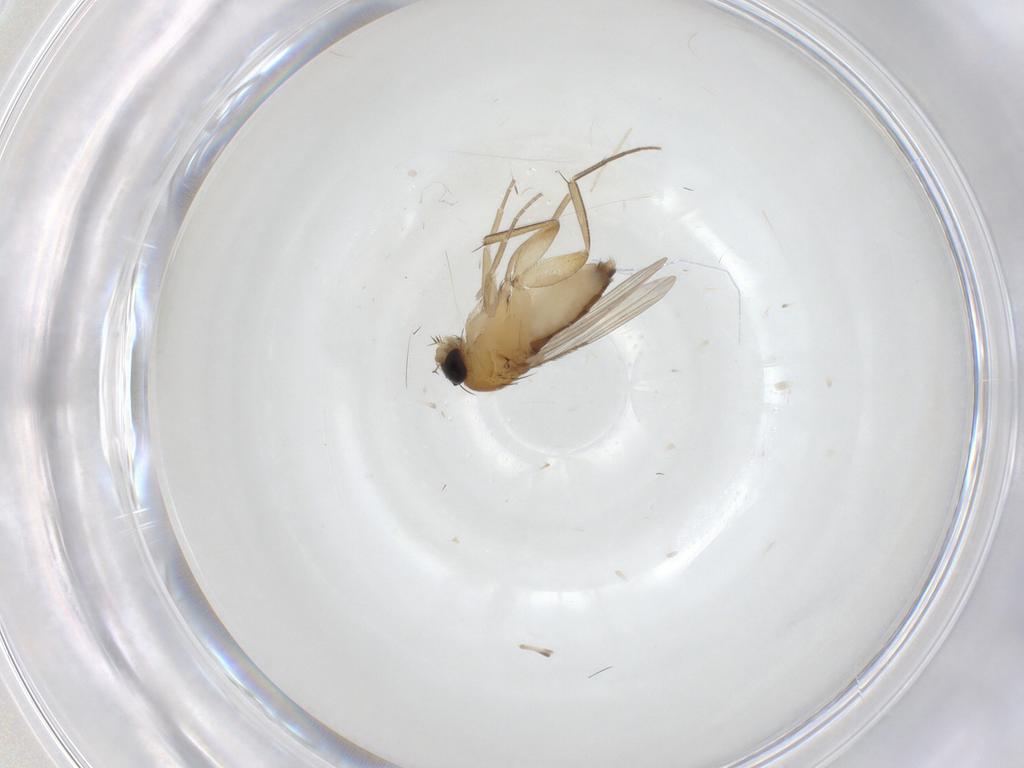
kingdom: Animalia
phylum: Arthropoda
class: Insecta
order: Diptera
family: Phoridae
